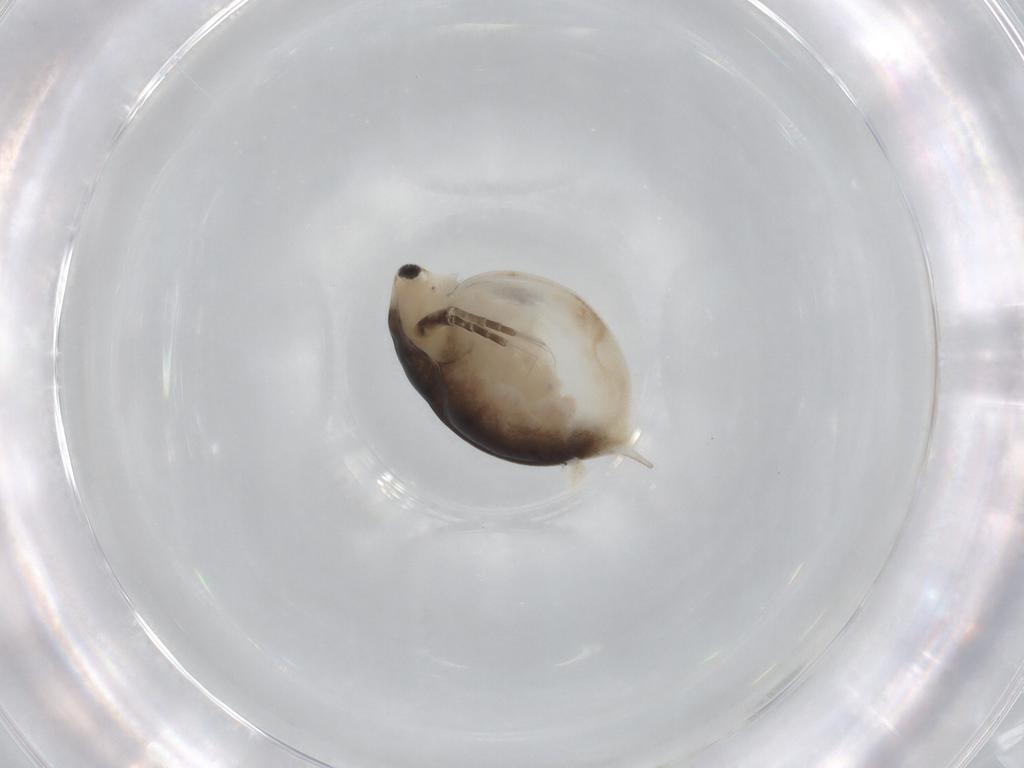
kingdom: Animalia
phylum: Arthropoda
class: Branchiopoda
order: Diplostraca
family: Daphniidae
